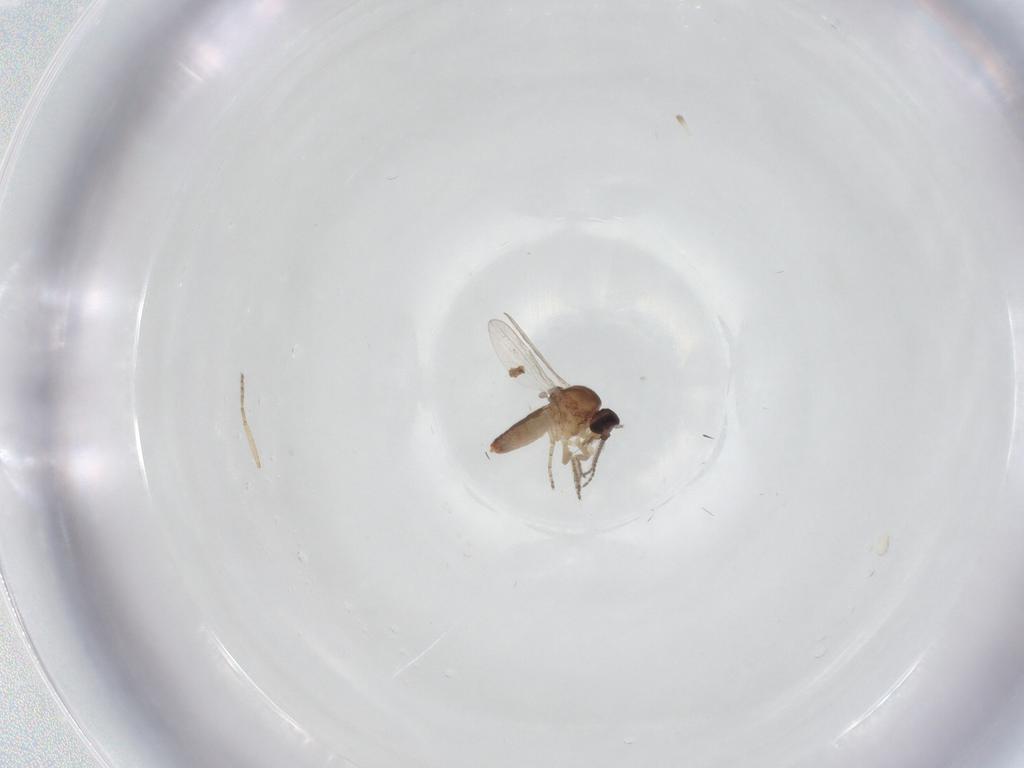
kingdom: Animalia
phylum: Arthropoda
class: Insecta
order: Diptera
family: Ceratopogonidae
